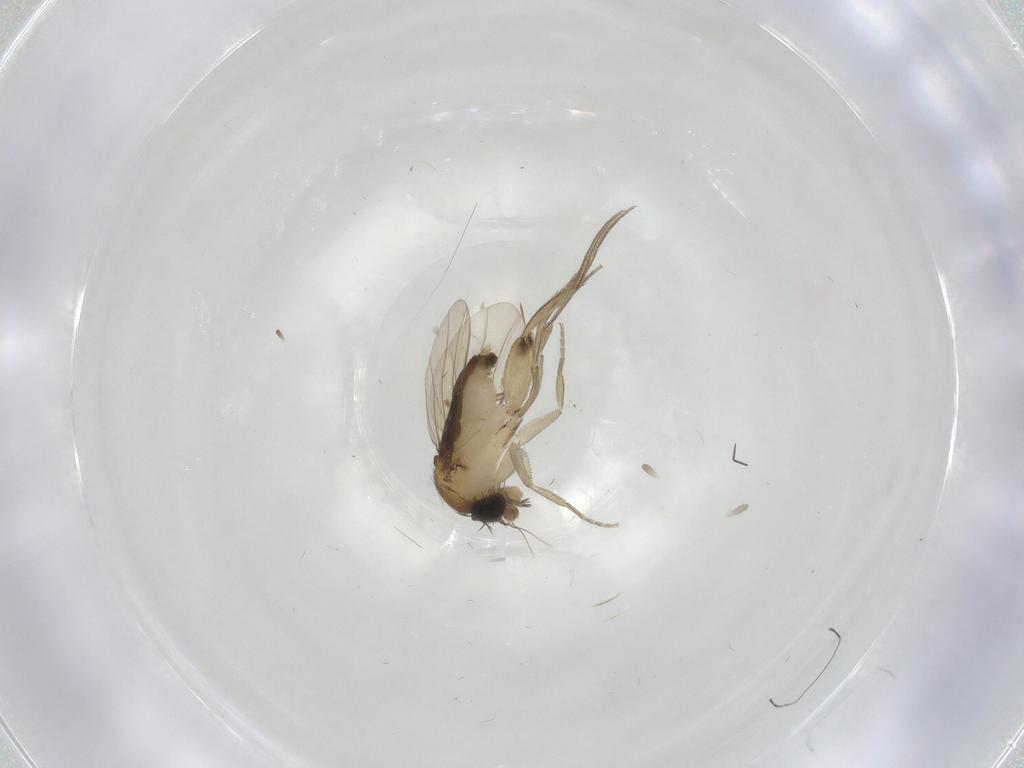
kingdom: Animalia
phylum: Arthropoda
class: Insecta
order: Diptera
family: Phoridae
